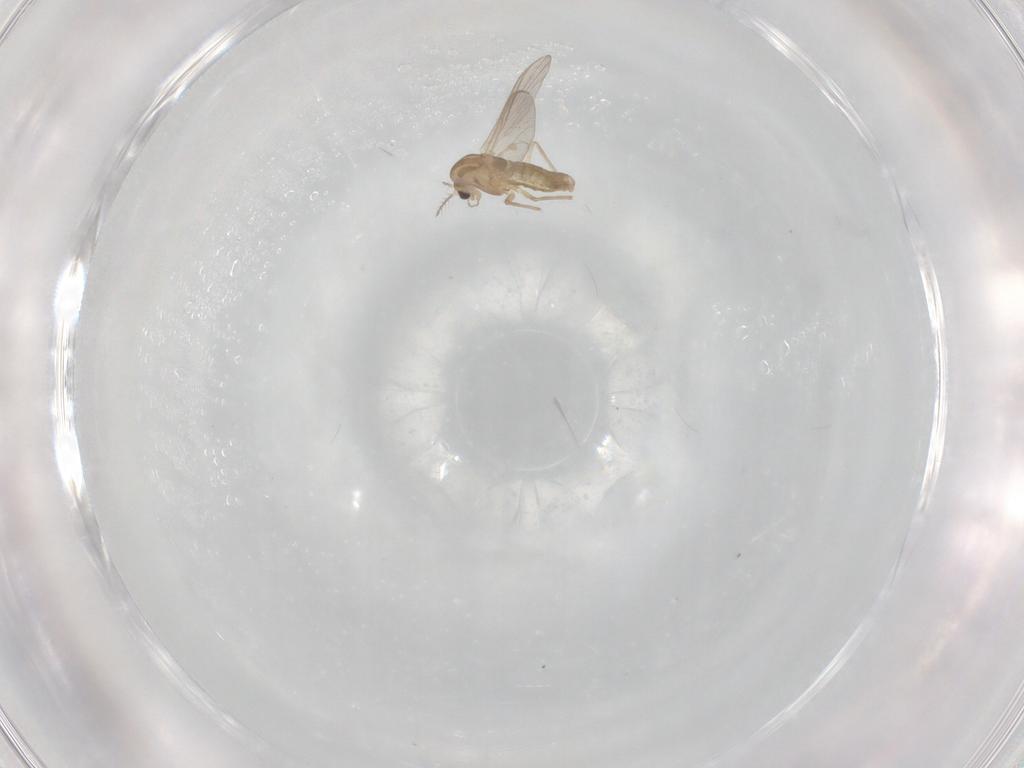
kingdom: Animalia
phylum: Arthropoda
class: Insecta
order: Diptera
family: Chironomidae
